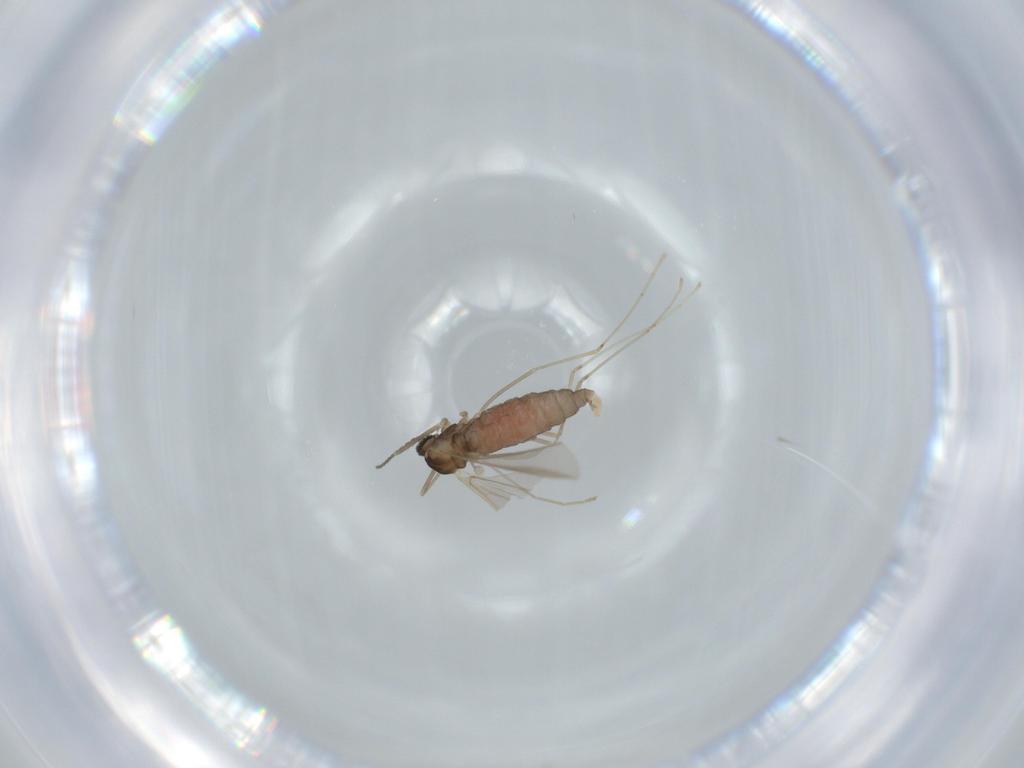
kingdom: Animalia
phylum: Arthropoda
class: Insecta
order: Diptera
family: Cecidomyiidae
